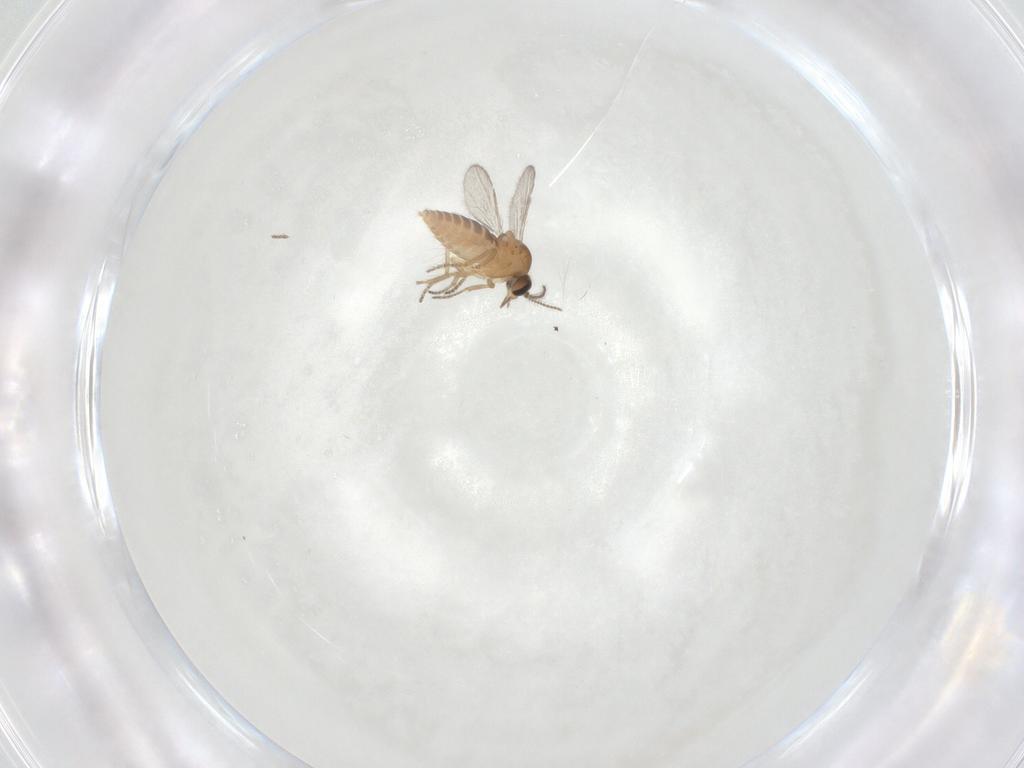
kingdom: Animalia
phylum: Arthropoda
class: Insecta
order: Diptera
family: Ceratopogonidae
